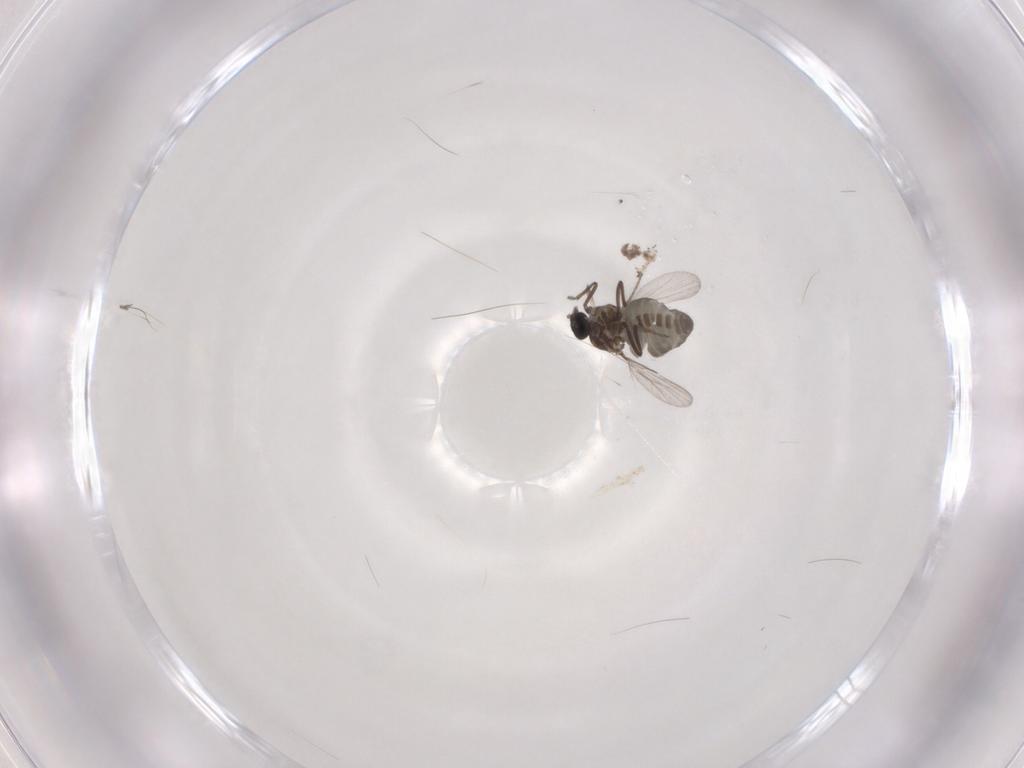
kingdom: Animalia
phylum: Arthropoda
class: Insecta
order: Diptera
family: Ceratopogonidae
